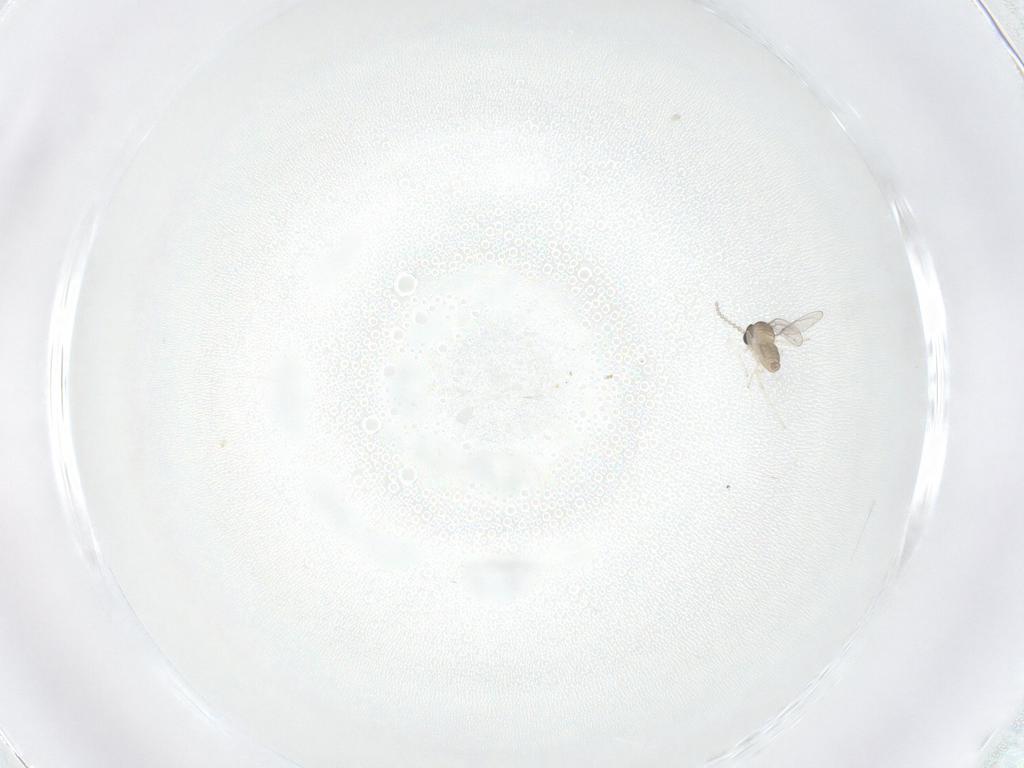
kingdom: Animalia
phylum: Arthropoda
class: Insecta
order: Diptera
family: Cecidomyiidae
